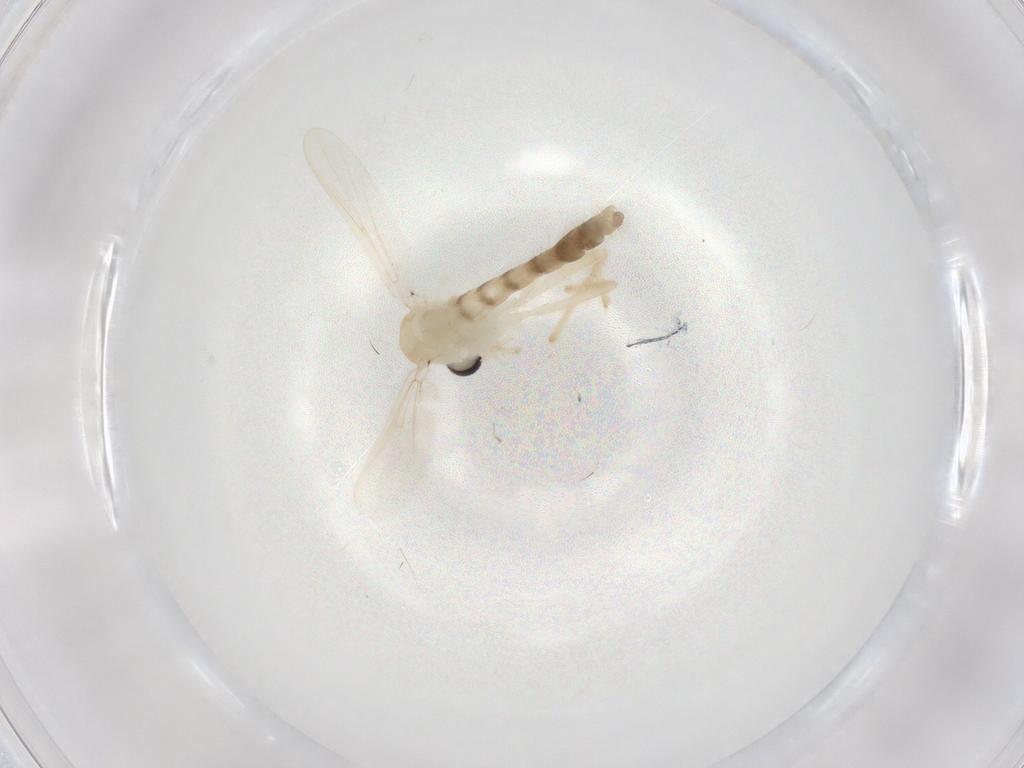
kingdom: Animalia
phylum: Arthropoda
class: Insecta
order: Diptera
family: Chironomidae
